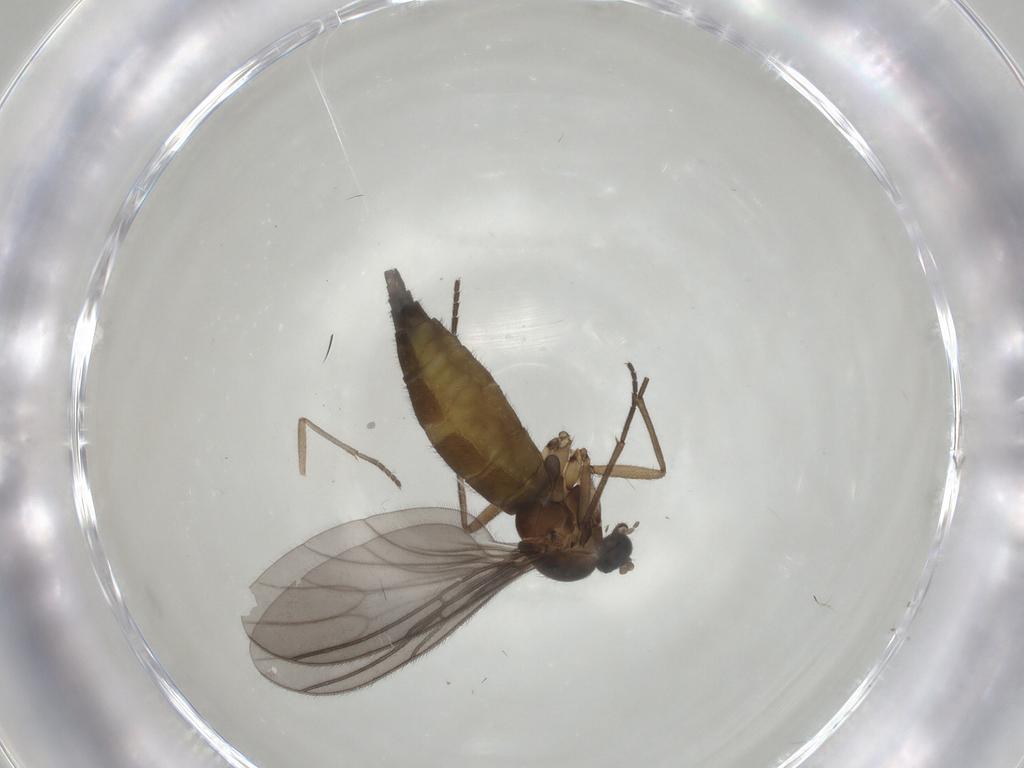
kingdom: Animalia
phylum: Arthropoda
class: Insecta
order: Diptera
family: Sciaridae
